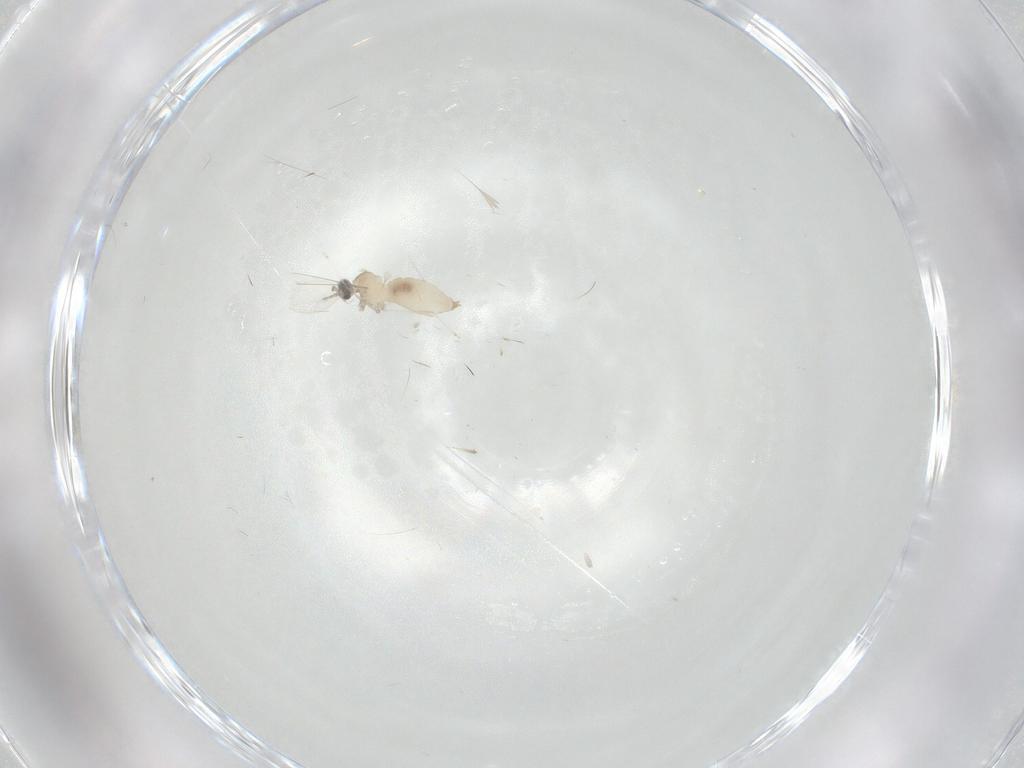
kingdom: Animalia
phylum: Arthropoda
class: Insecta
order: Diptera
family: Cecidomyiidae
